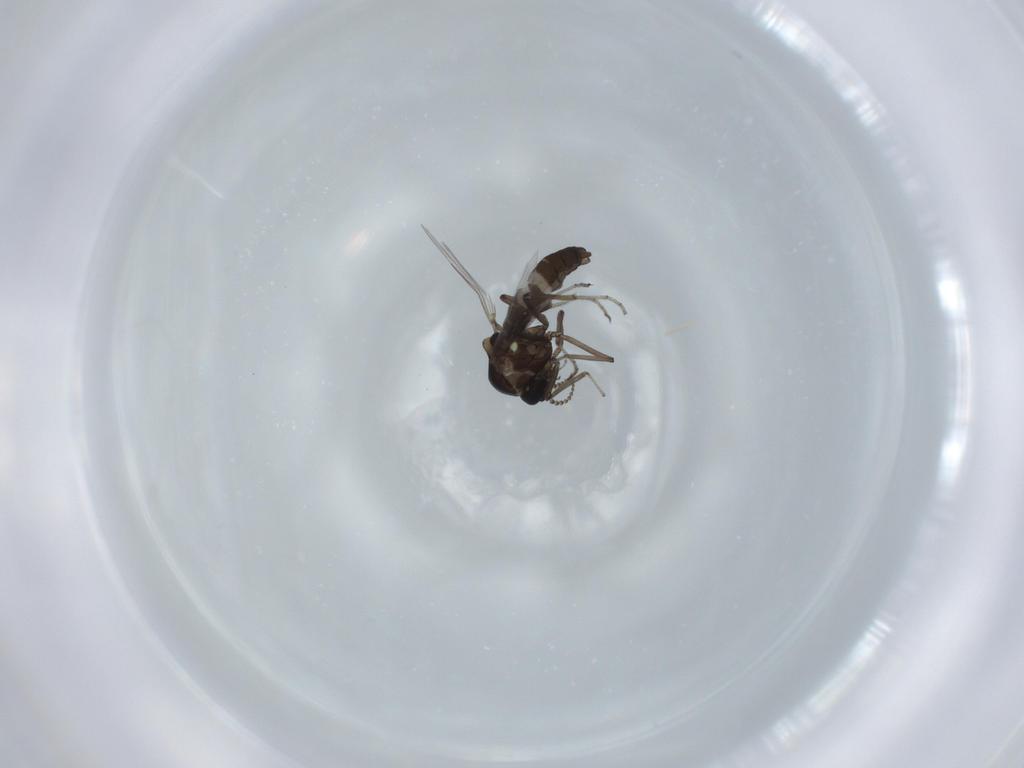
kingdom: Animalia
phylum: Arthropoda
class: Insecta
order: Diptera
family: Ceratopogonidae
